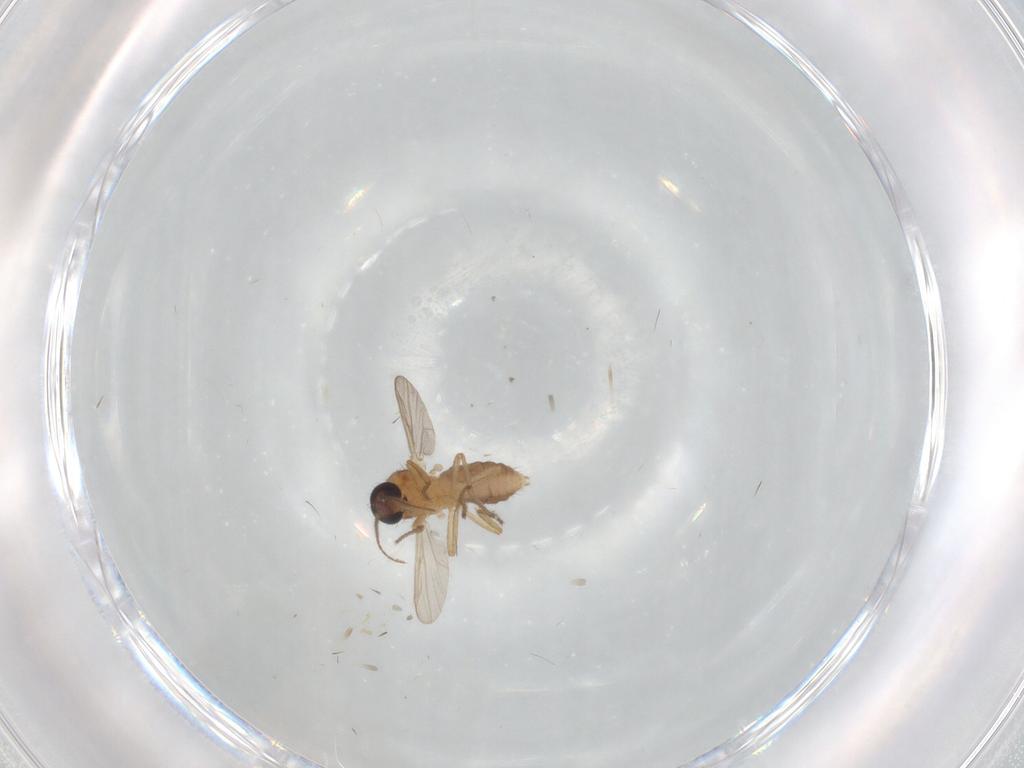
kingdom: Animalia
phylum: Arthropoda
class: Insecta
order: Diptera
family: Ceratopogonidae
